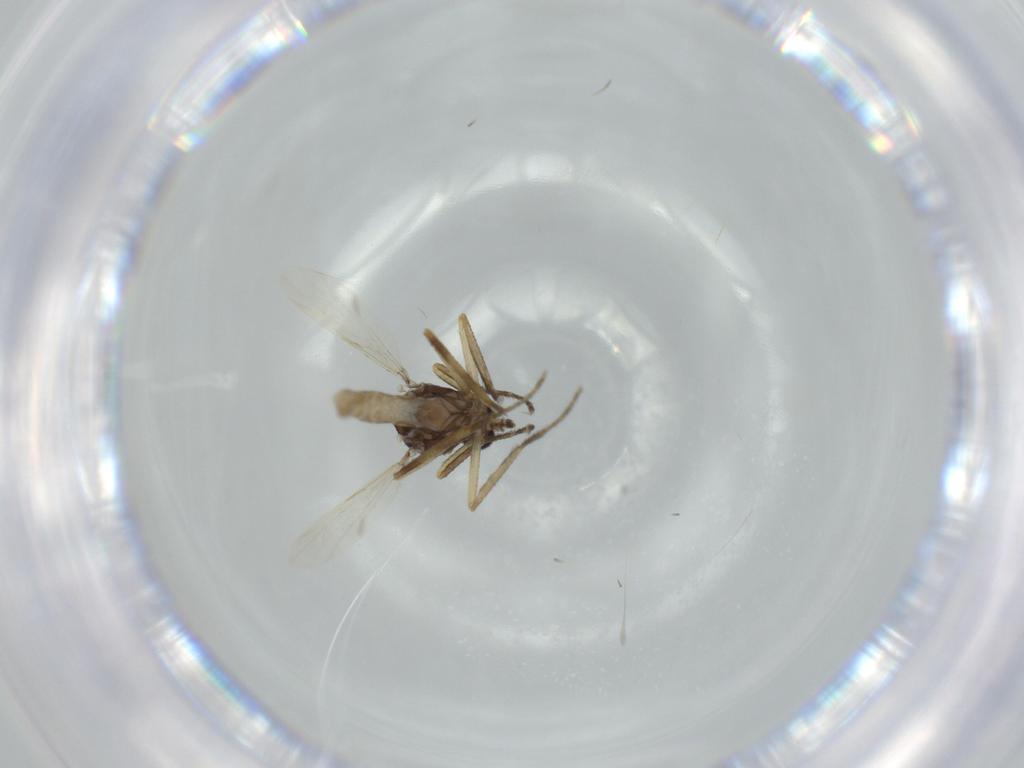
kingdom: Animalia
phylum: Arthropoda
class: Insecta
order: Diptera
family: Ceratopogonidae
